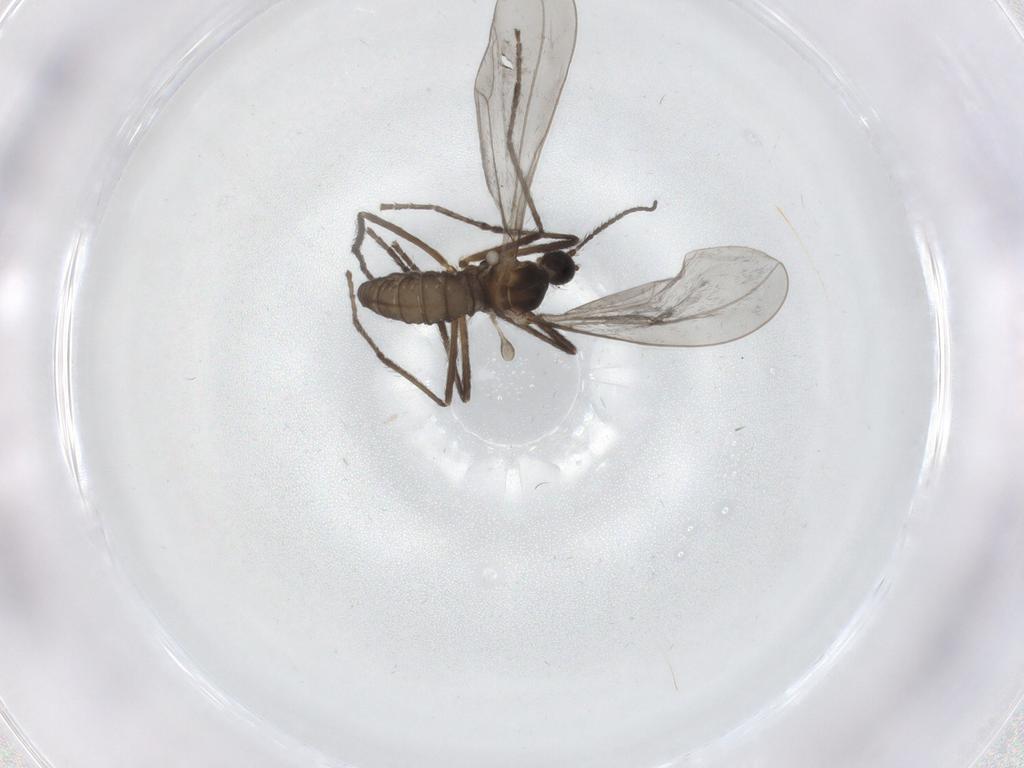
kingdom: Animalia
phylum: Arthropoda
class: Insecta
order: Diptera
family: Cecidomyiidae
